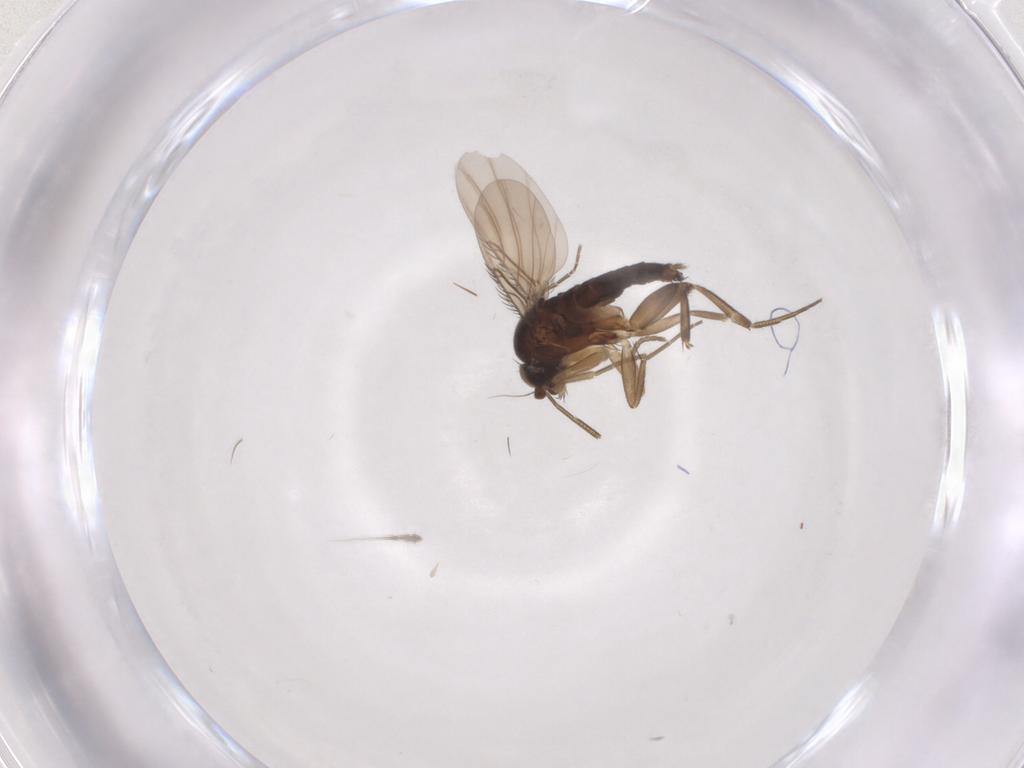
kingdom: Animalia
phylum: Arthropoda
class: Insecta
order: Diptera
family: Phoridae
